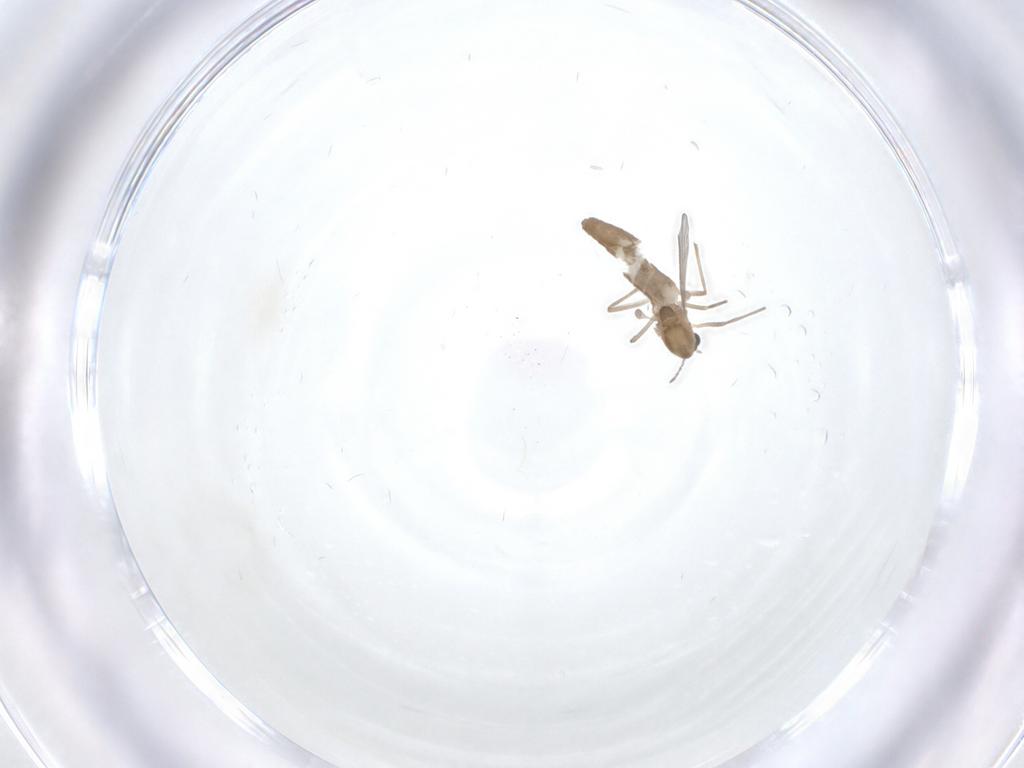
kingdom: Animalia
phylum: Arthropoda
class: Insecta
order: Diptera
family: Chironomidae
